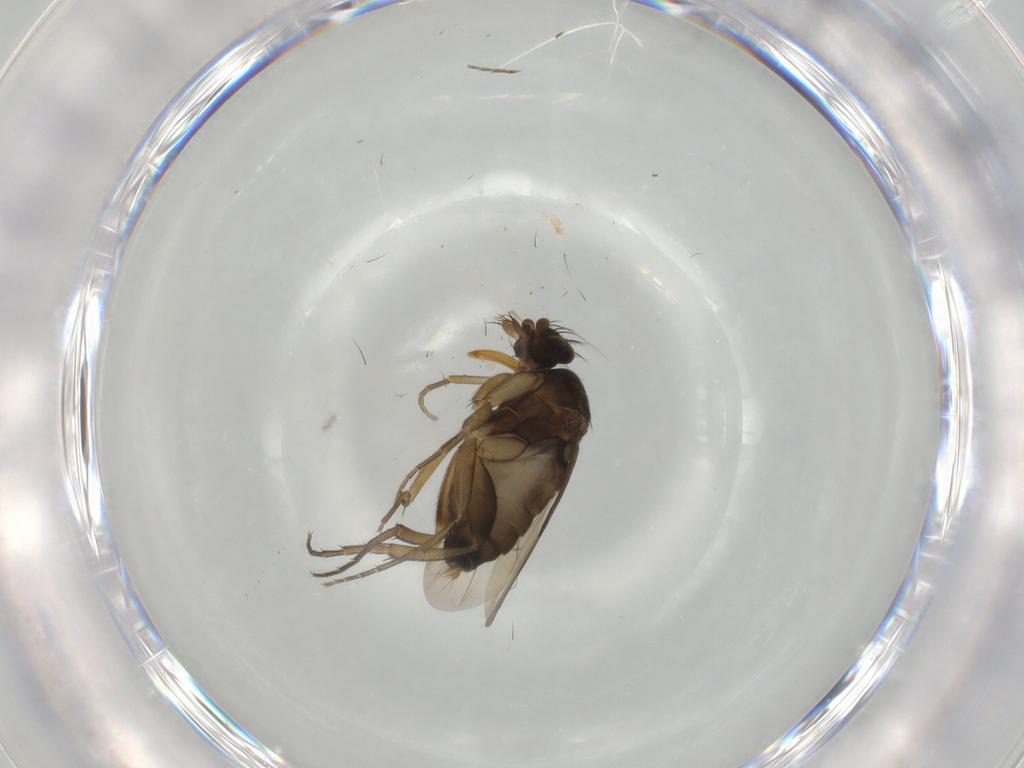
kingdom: Animalia
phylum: Arthropoda
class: Insecta
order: Diptera
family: Phoridae
